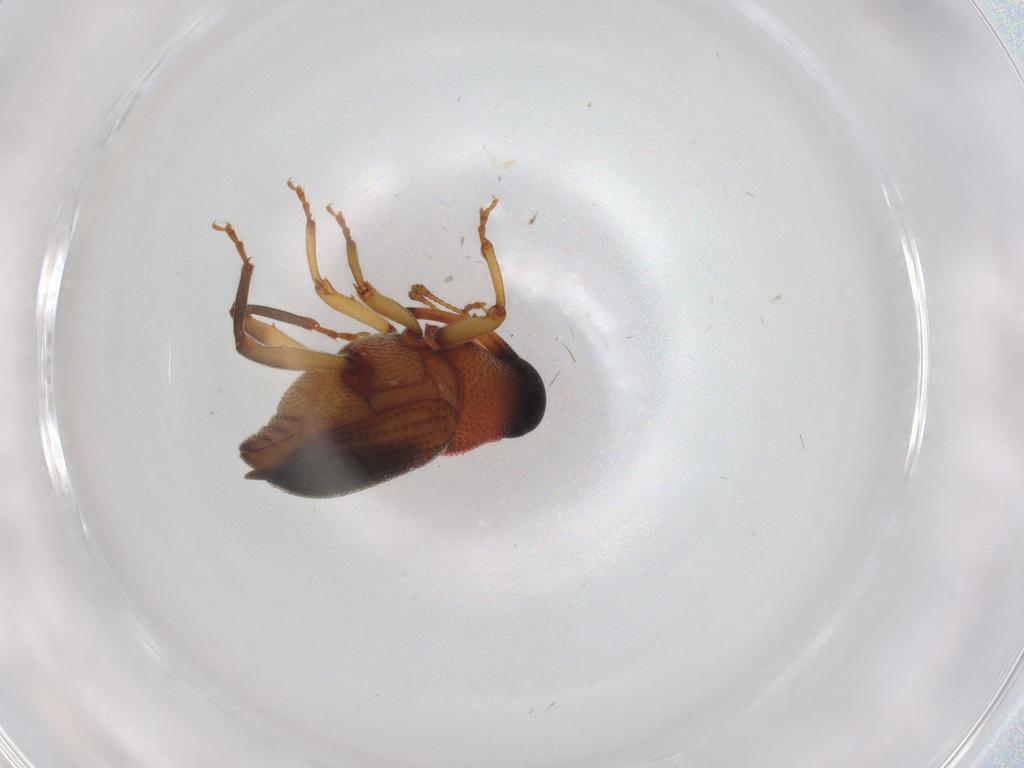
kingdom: Animalia
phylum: Arthropoda
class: Insecta
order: Coleoptera
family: Curculionidae
